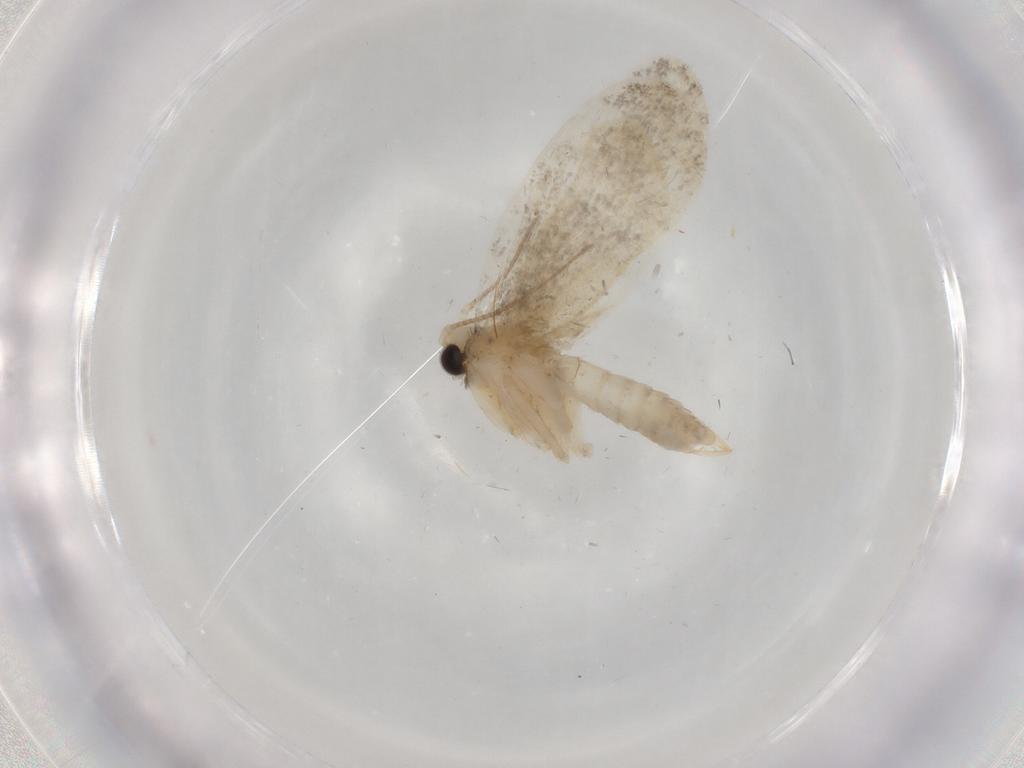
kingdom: Animalia
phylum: Arthropoda
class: Insecta
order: Lepidoptera
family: Psychidae
